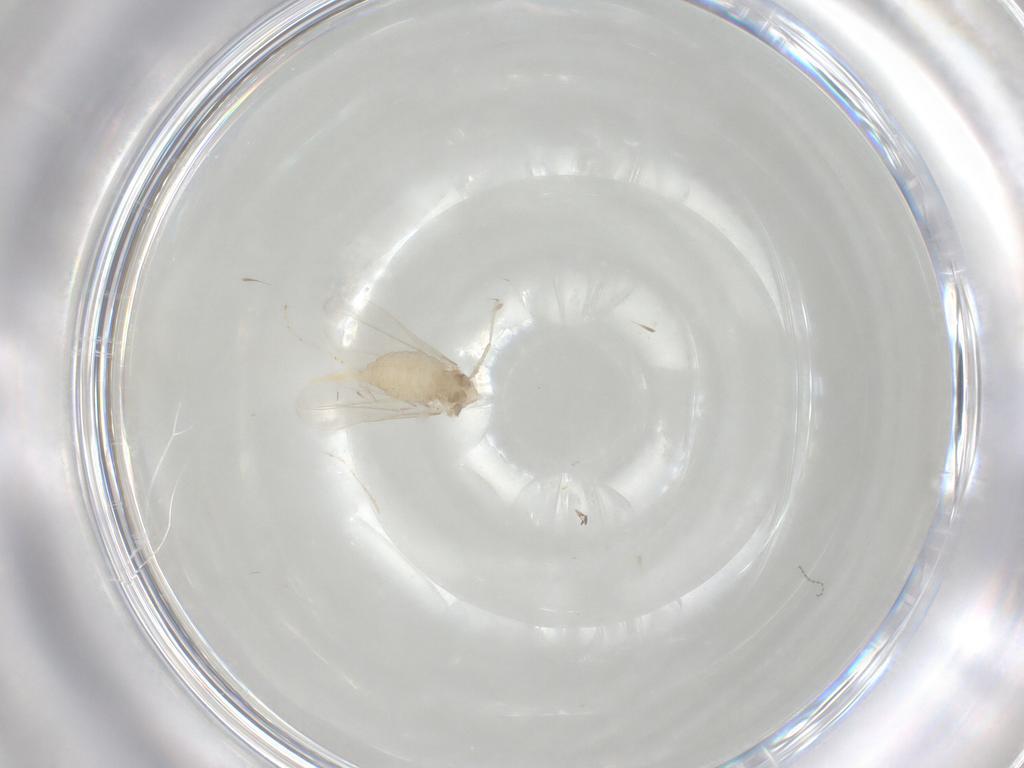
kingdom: Animalia
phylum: Arthropoda
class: Insecta
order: Diptera
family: Cecidomyiidae
